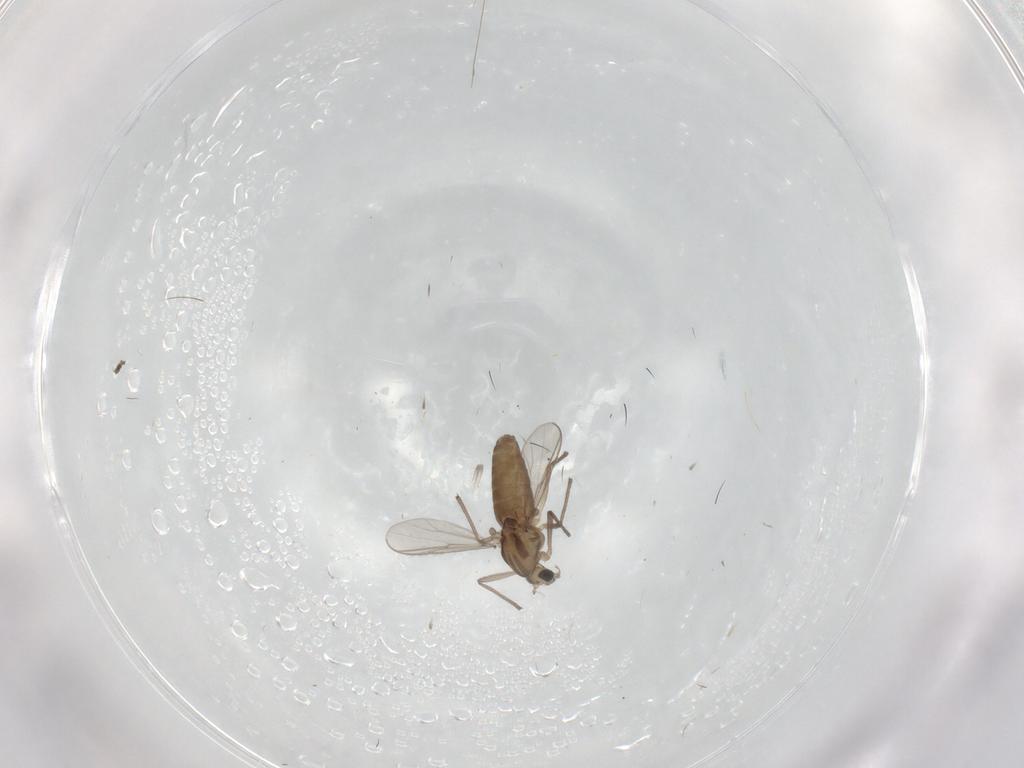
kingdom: Animalia
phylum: Arthropoda
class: Insecta
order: Diptera
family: Chironomidae
